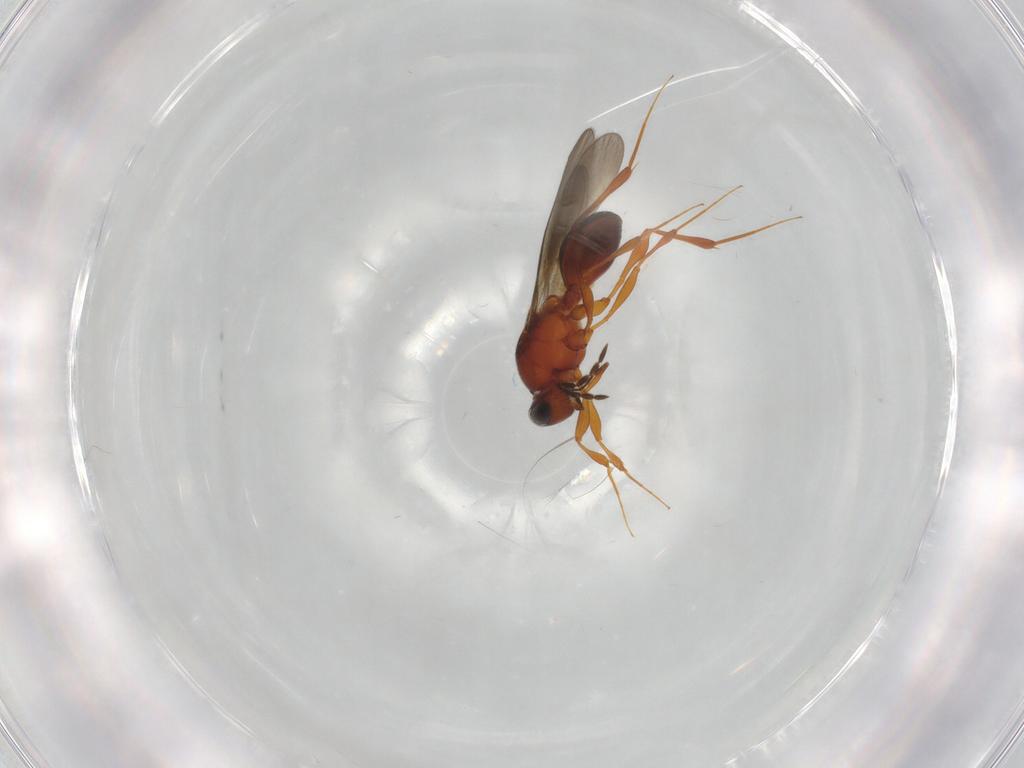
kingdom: Animalia
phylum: Arthropoda
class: Insecta
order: Hymenoptera
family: Platygastridae
